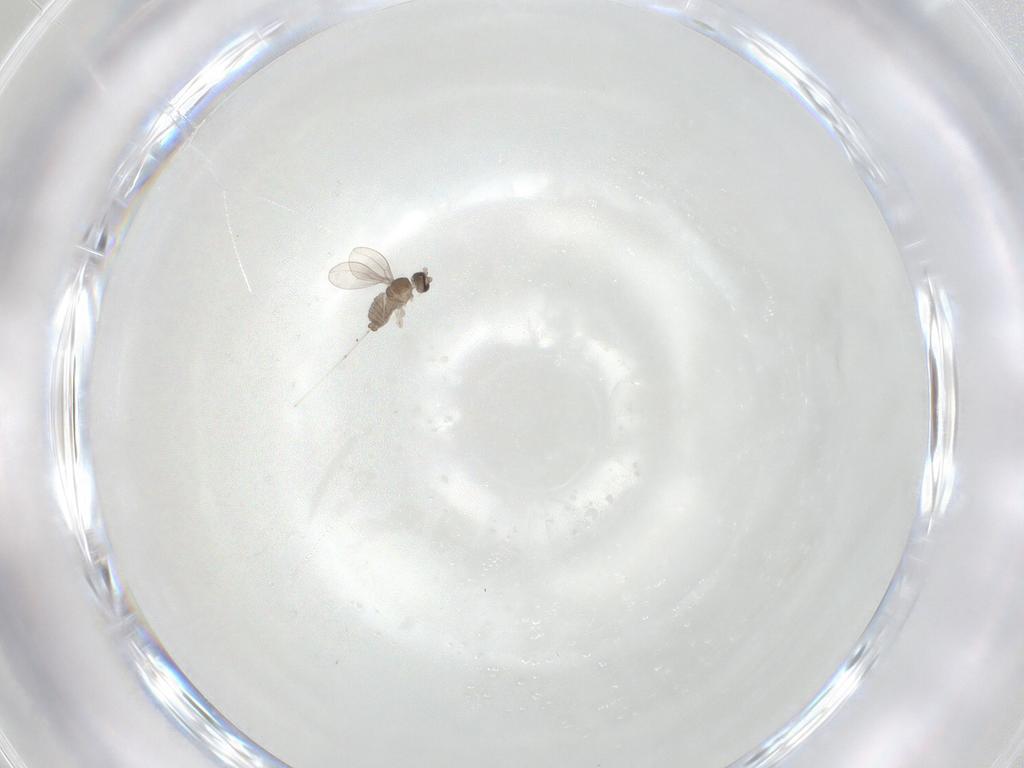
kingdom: Animalia
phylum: Arthropoda
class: Insecta
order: Diptera
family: Cecidomyiidae
